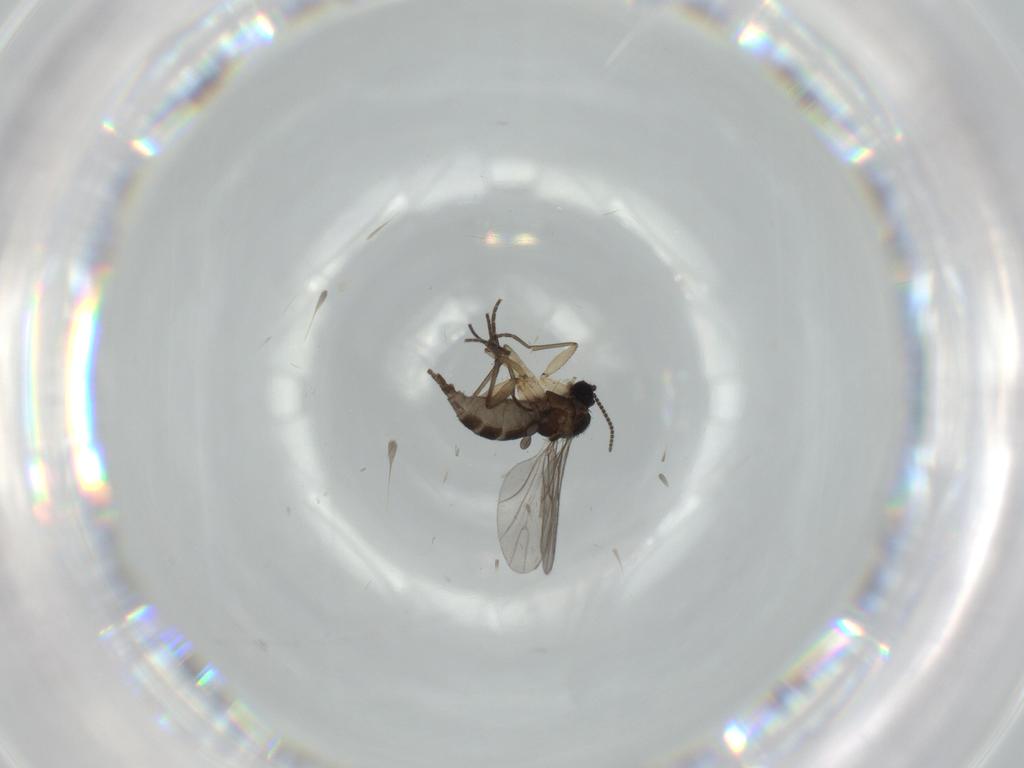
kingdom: Animalia
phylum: Arthropoda
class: Insecta
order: Diptera
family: Sciaridae
